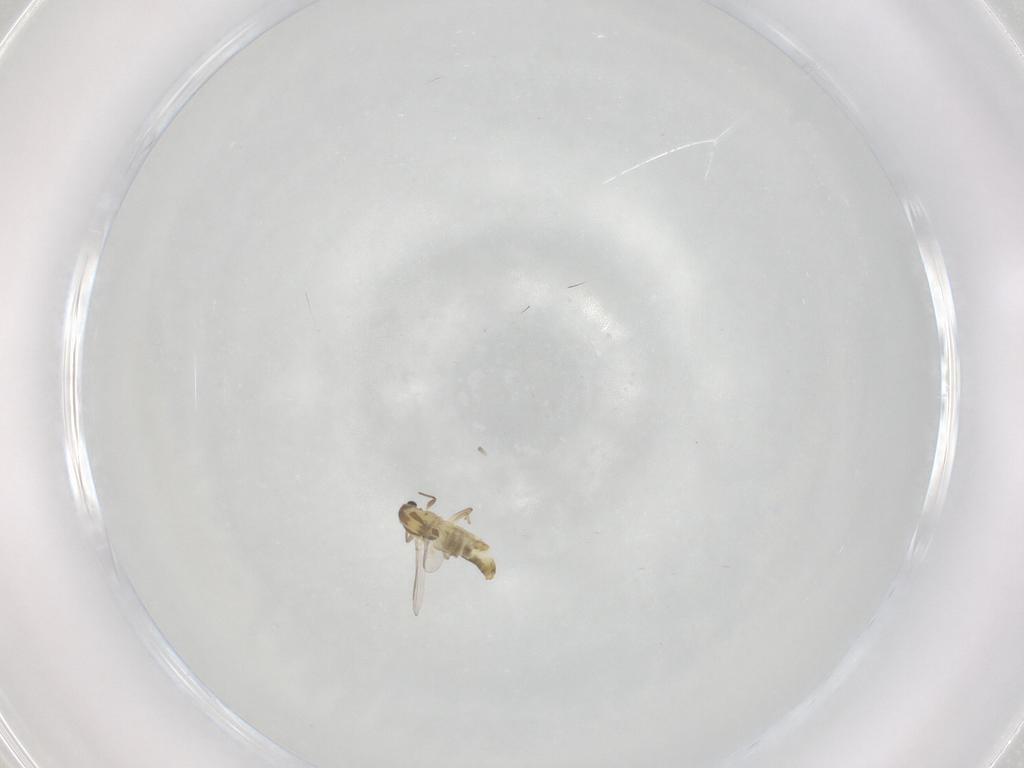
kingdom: Animalia
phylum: Arthropoda
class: Insecta
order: Diptera
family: Chironomidae
